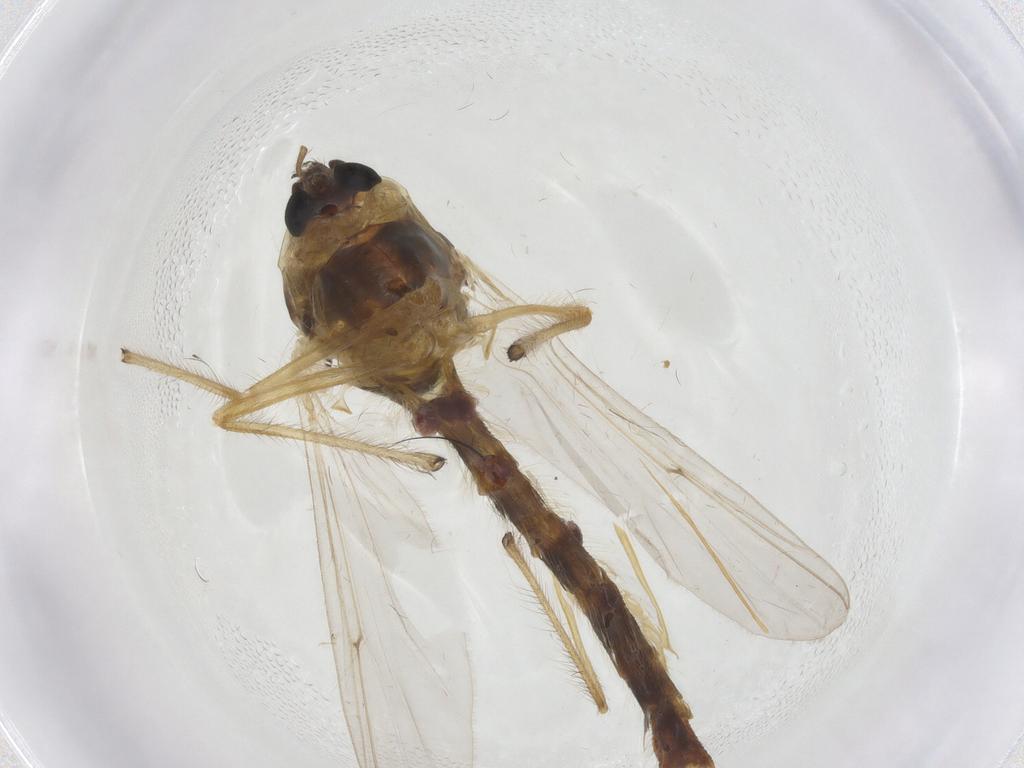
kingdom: Animalia
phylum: Arthropoda
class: Insecta
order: Diptera
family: Chironomidae
